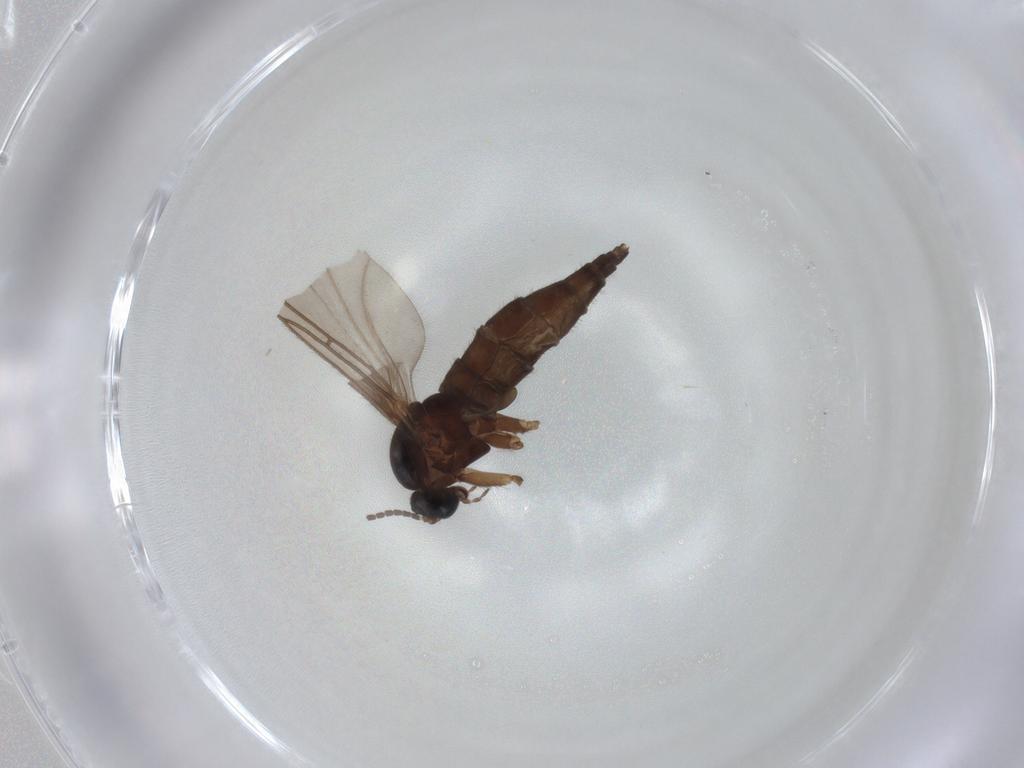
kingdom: Animalia
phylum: Arthropoda
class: Insecta
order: Diptera
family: Sciaridae
